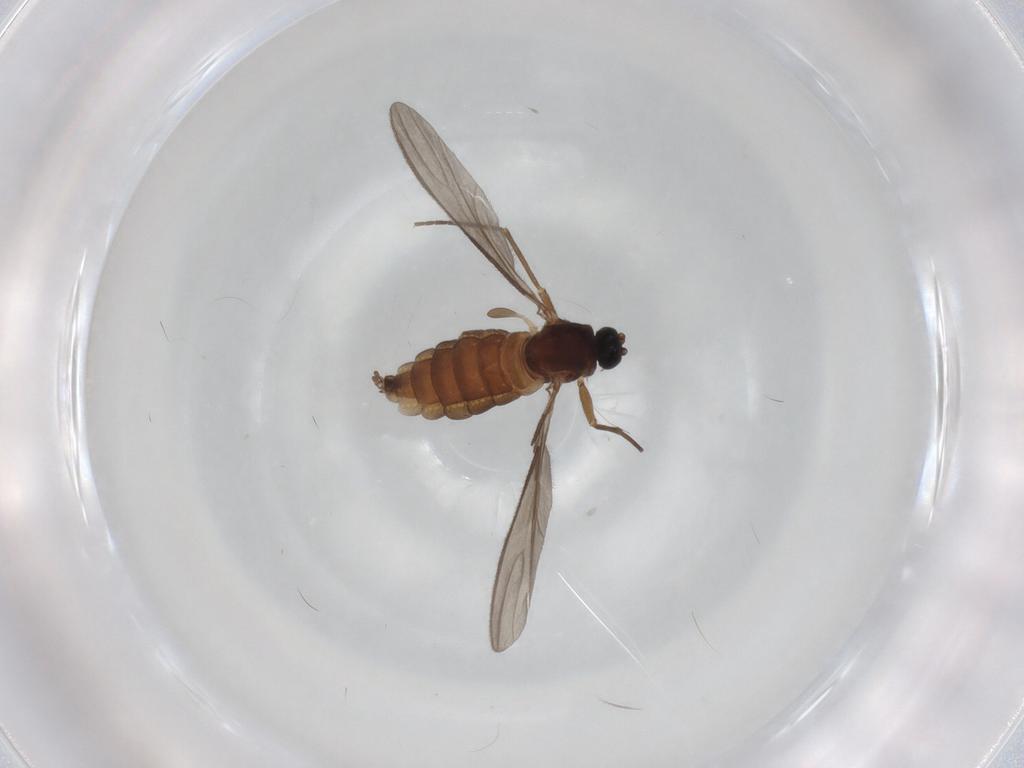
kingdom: Animalia
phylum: Arthropoda
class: Insecta
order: Diptera
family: Sciaridae
